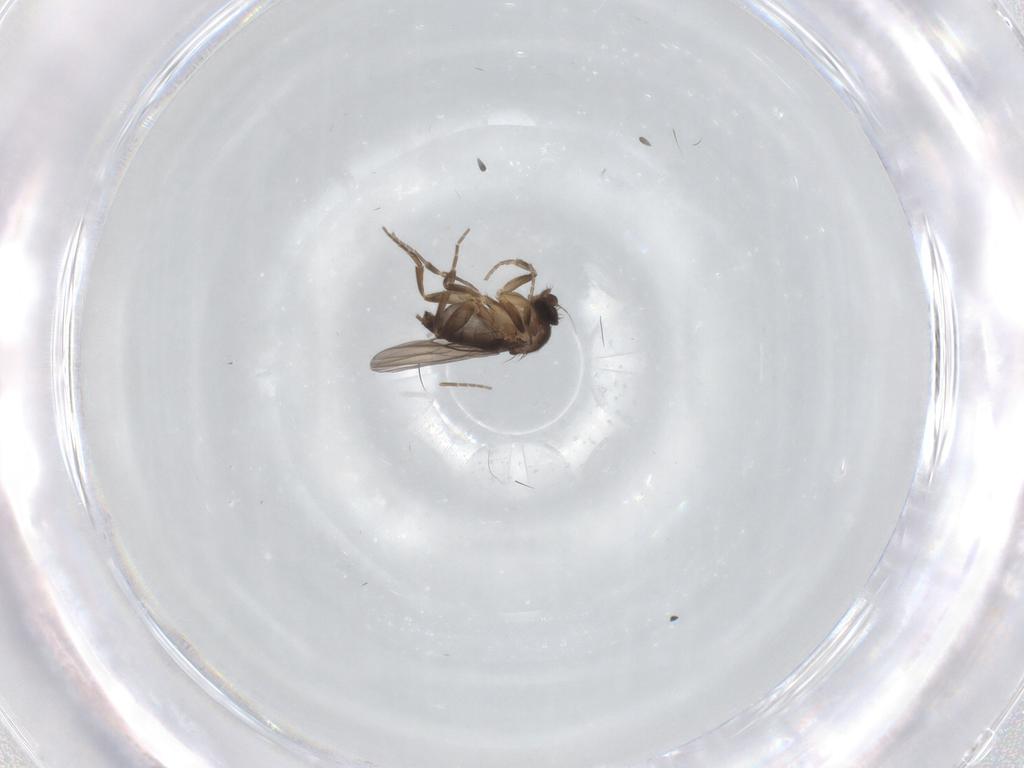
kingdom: Animalia
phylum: Arthropoda
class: Insecta
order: Diptera
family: Phoridae
